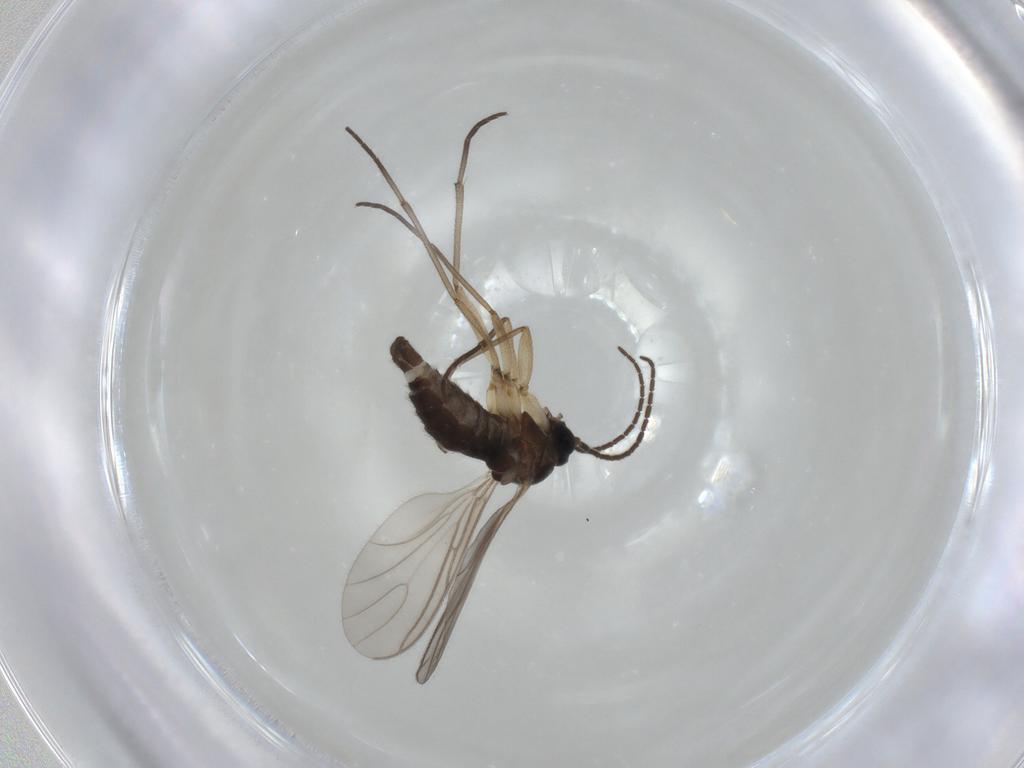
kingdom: Animalia
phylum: Arthropoda
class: Insecta
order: Diptera
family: Sciaridae
